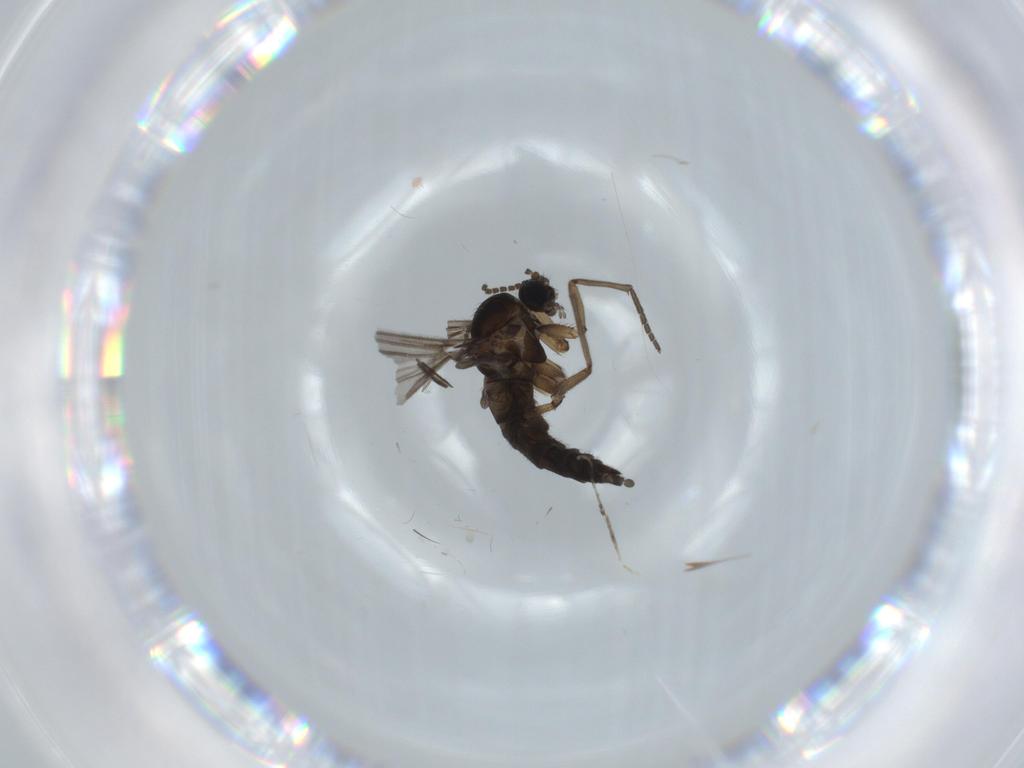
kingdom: Animalia
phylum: Arthropoda
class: Insecta
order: Diptera
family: Sciaridae
